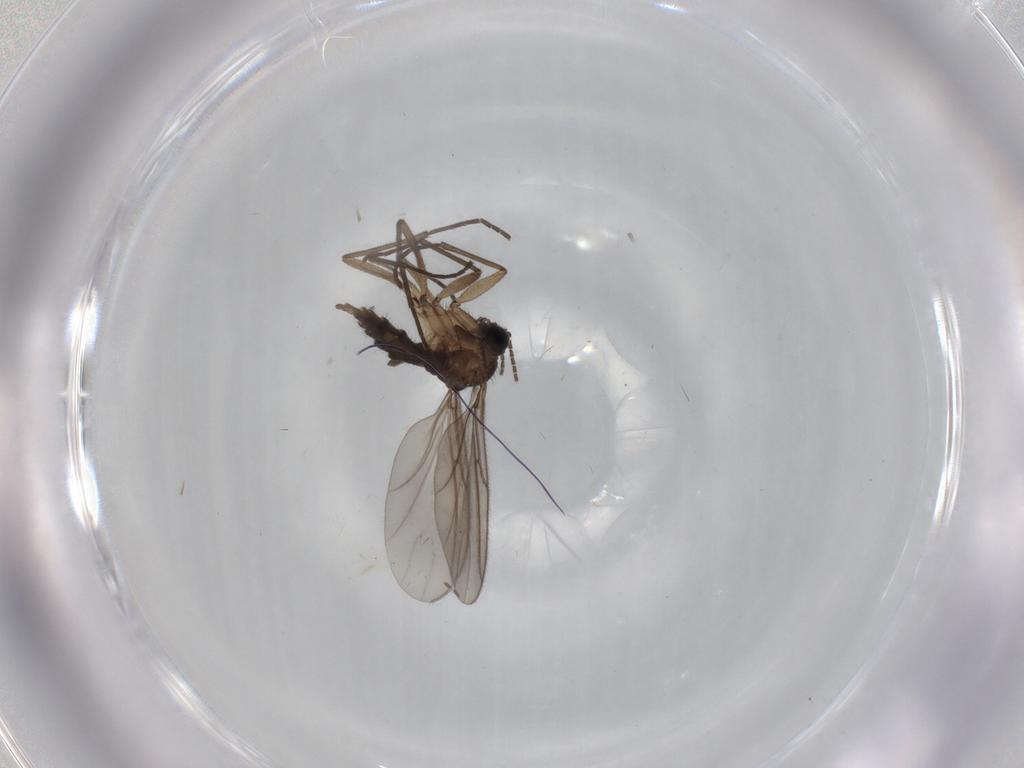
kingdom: Animalia
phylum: Arthropoda
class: Insecta
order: Diptera
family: Cecidomyiidae
